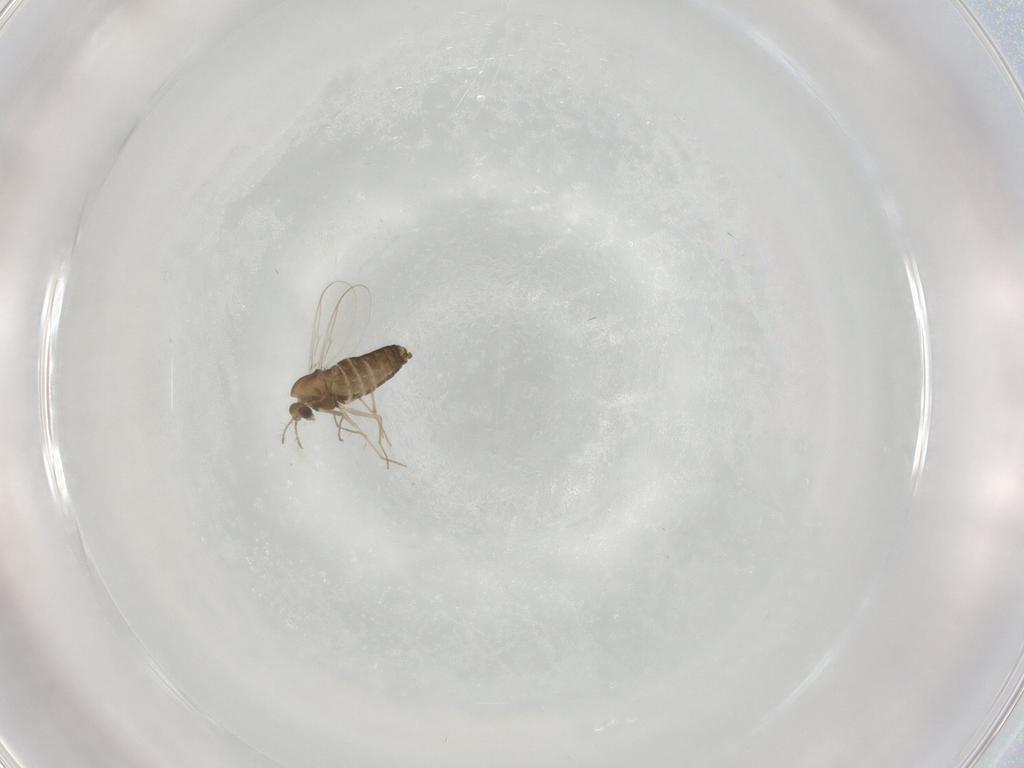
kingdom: Animalia
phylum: Arthropoda
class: Insecta
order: Diptera
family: Chironomidae
